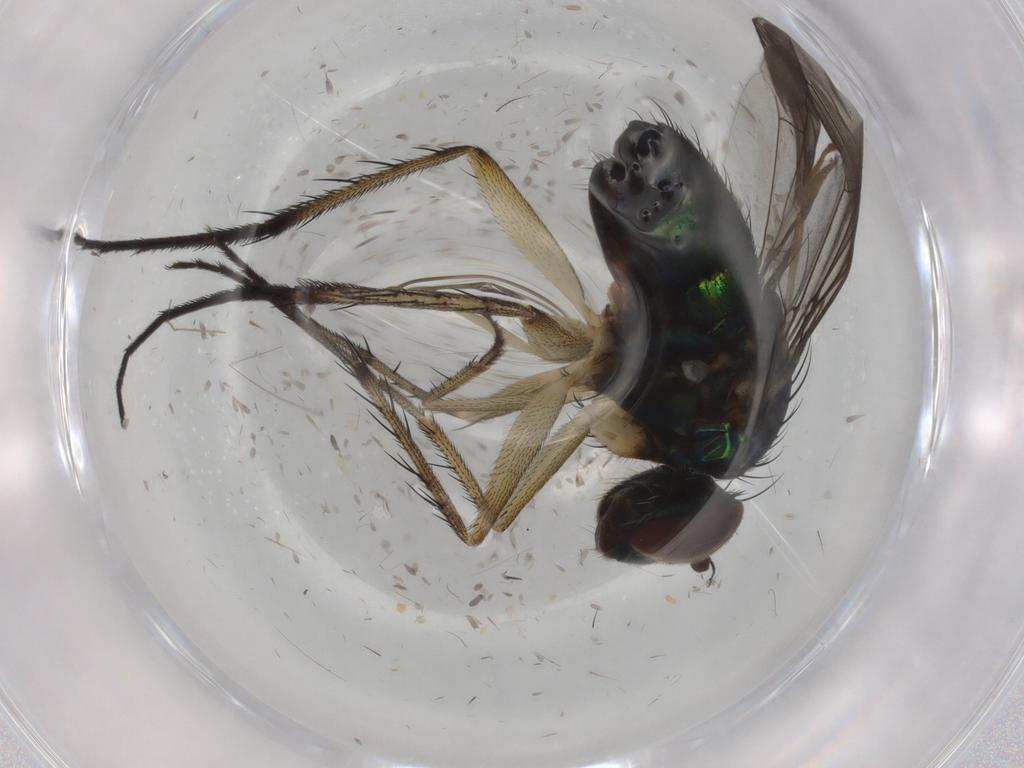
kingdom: Animalia
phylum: Arthropoda
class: Insecta
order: Diptera
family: Dolichopodidae
